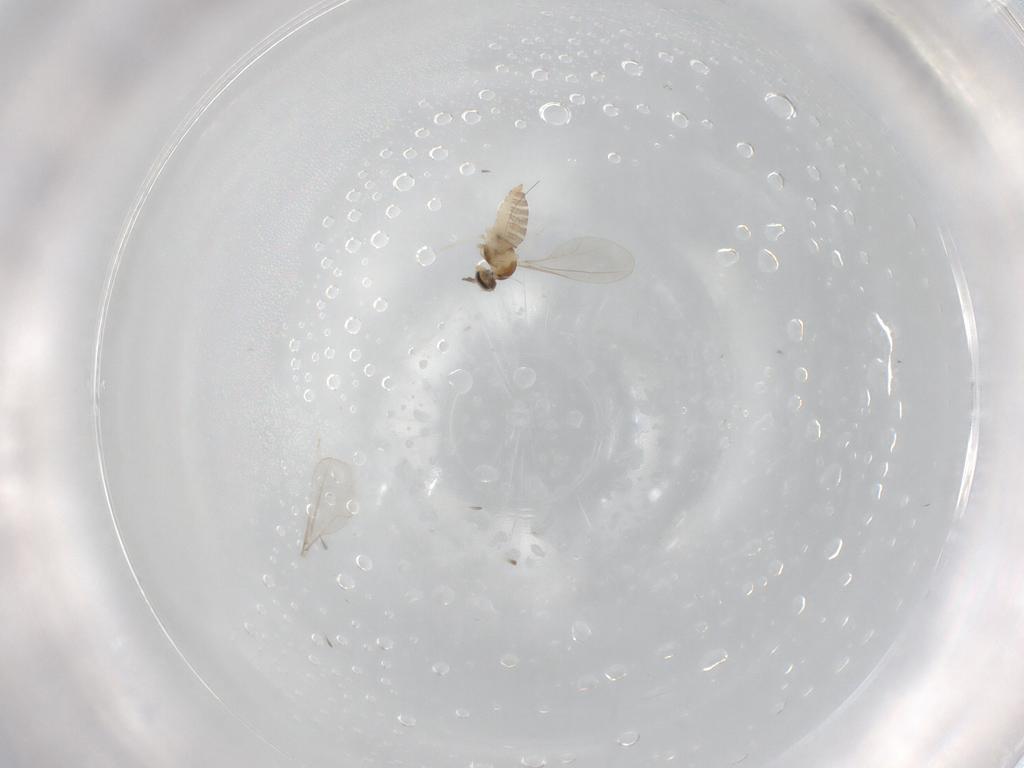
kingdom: Animalia
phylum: Arthropoda
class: Insecta
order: Diptera
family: Cecidomyiidae
